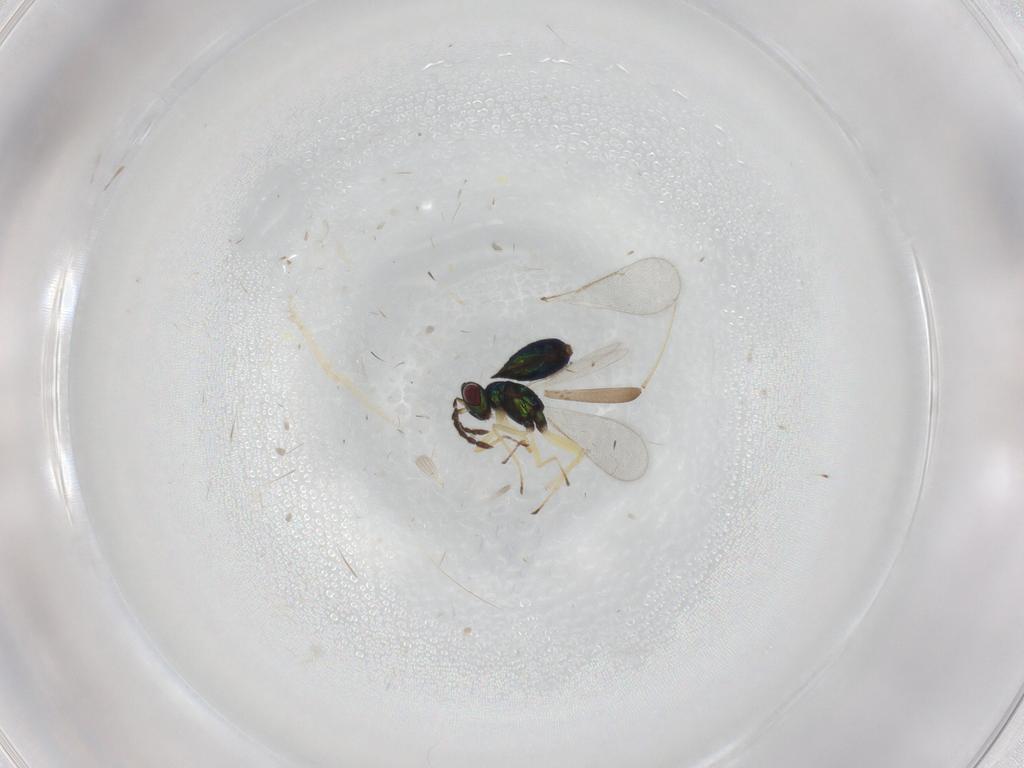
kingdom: Animalia
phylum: Arthropoda
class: Insecta
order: Hymenoptera
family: Eulophidae
